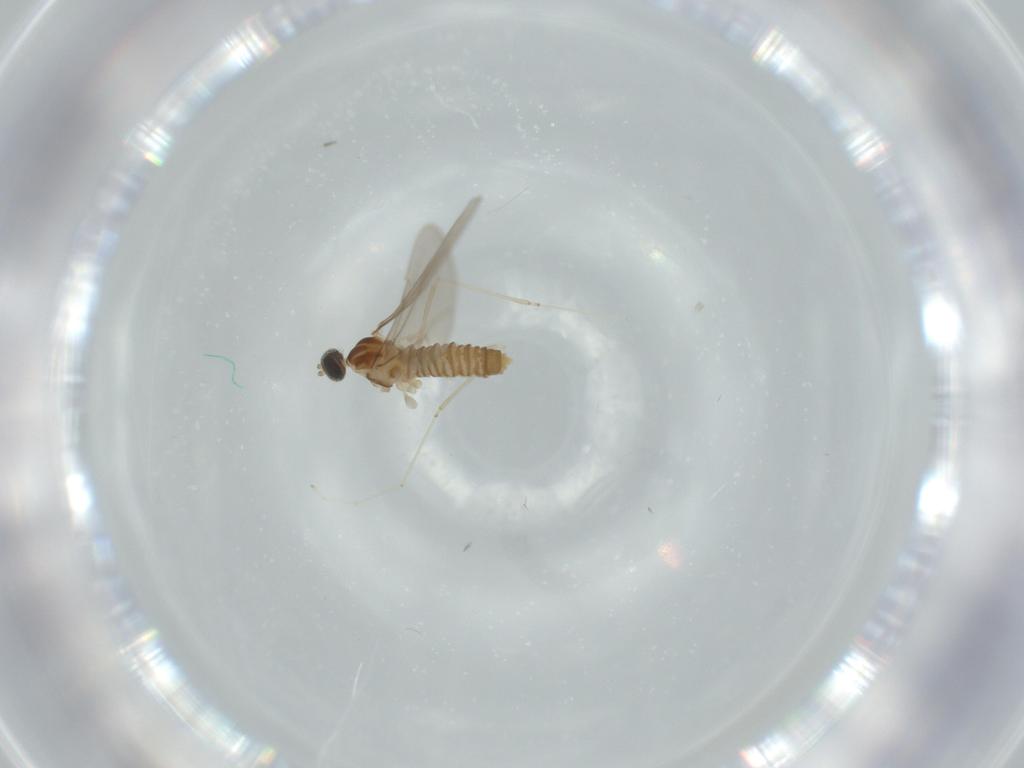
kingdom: Animalia
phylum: Arthropoda
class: Insecta
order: Diptera
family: Cecidomyiidae
